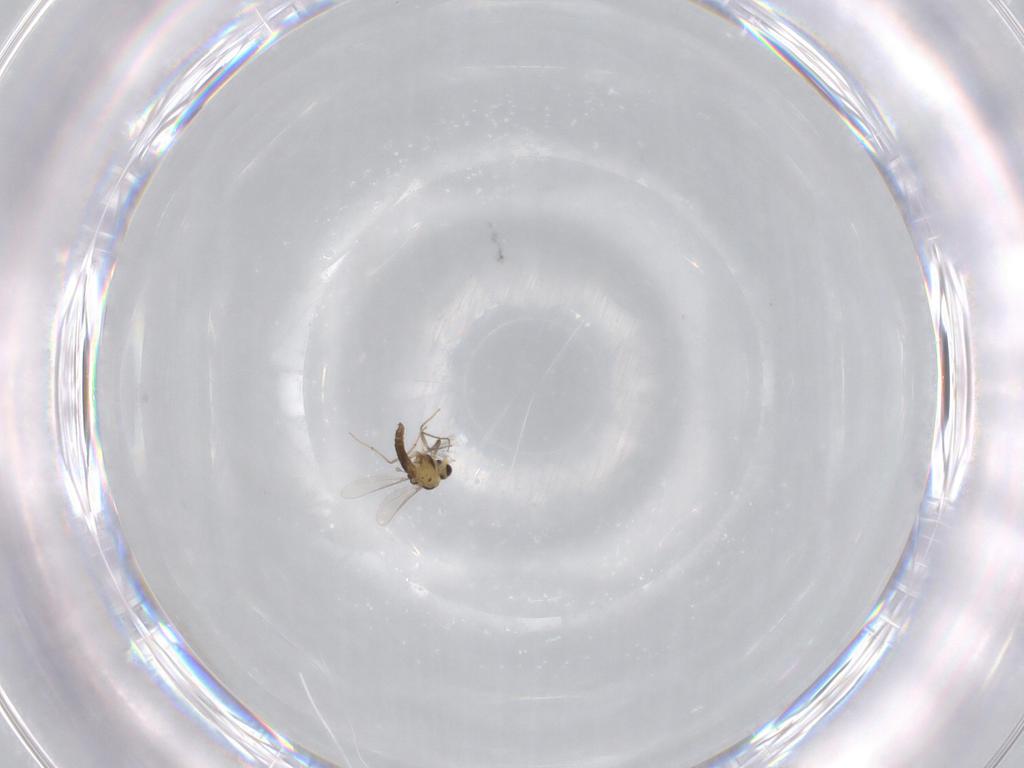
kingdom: Animalia
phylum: Arthropoda
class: Insecta
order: Diptera
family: Chironomidae
